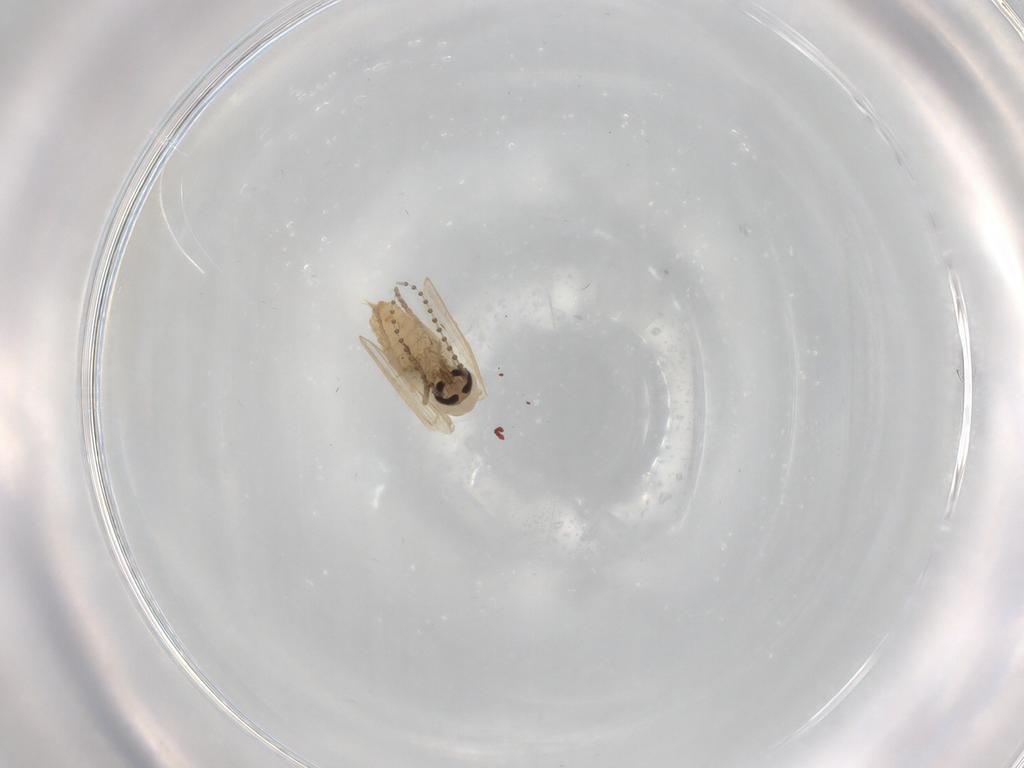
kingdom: Animalia
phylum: Arthropoda
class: Insecta
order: Diptera
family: Psychodidae
